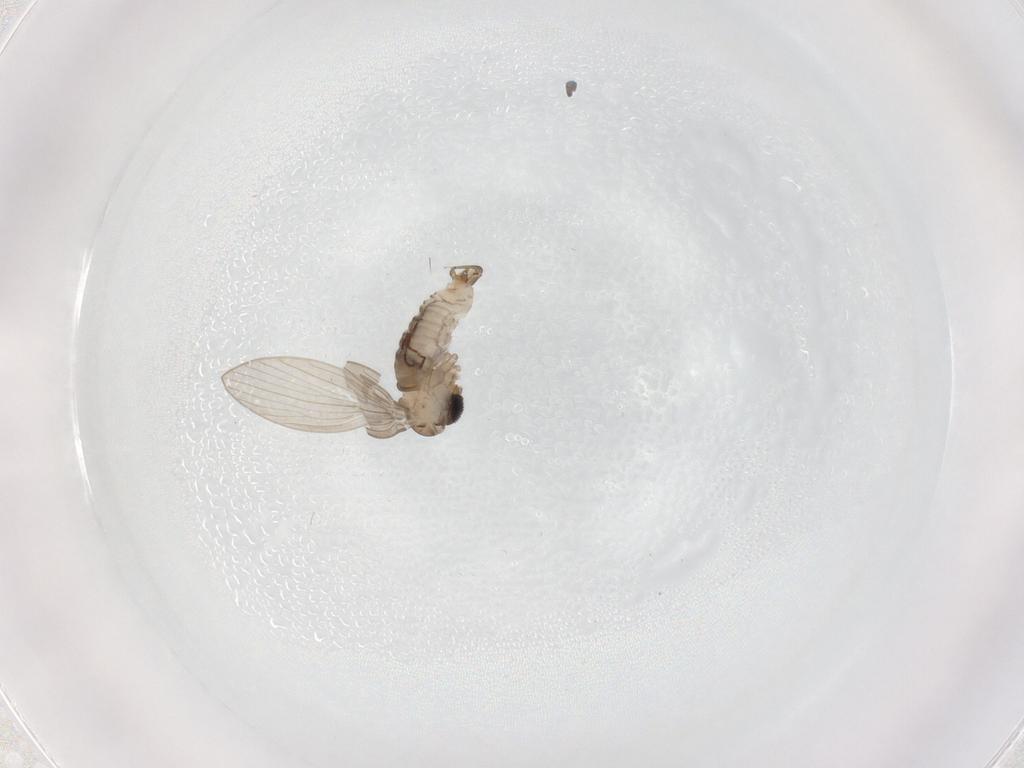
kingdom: Animalia
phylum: Arthropoda
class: Insecta
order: Diptera
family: Psychodidae
